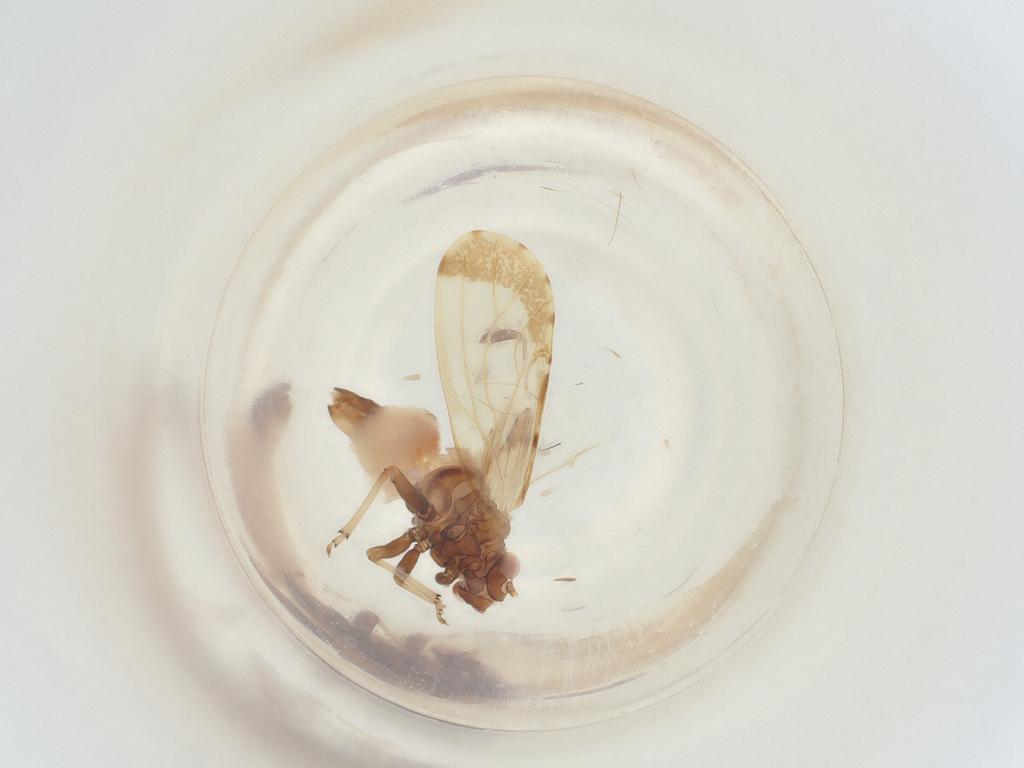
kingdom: Animalia
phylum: Arthropoda
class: Insecta
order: Hemiptera
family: Psyllidae
